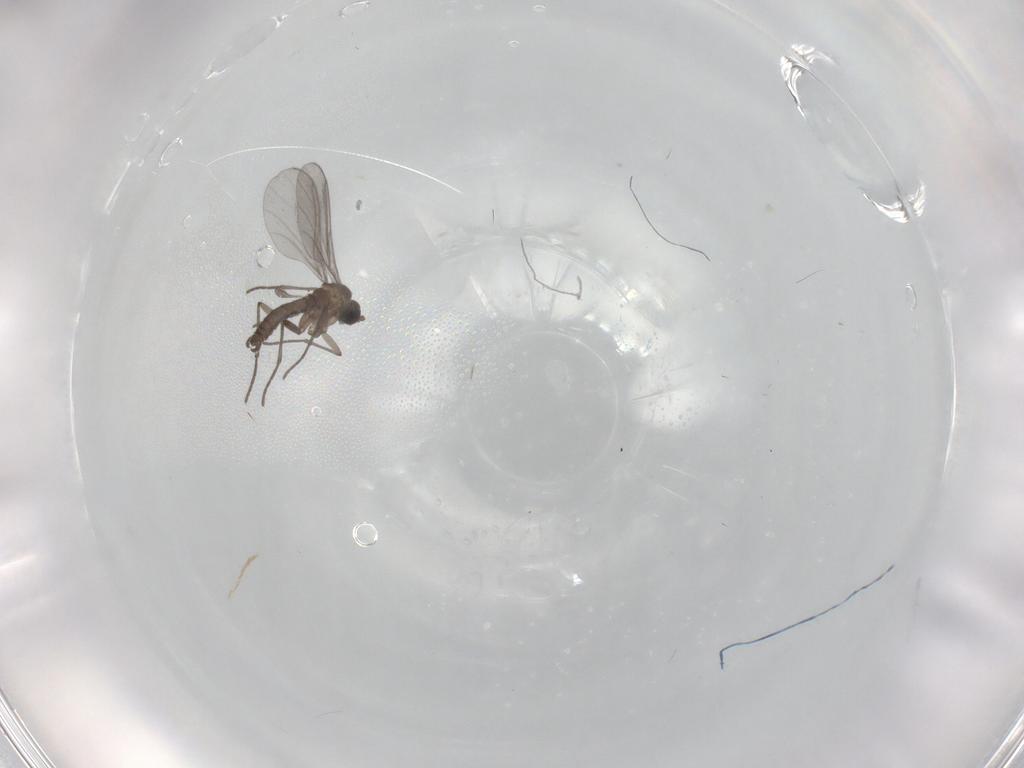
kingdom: Animalia
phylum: Arthropoda
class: Insecta
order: Diptera
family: Sciaridae
